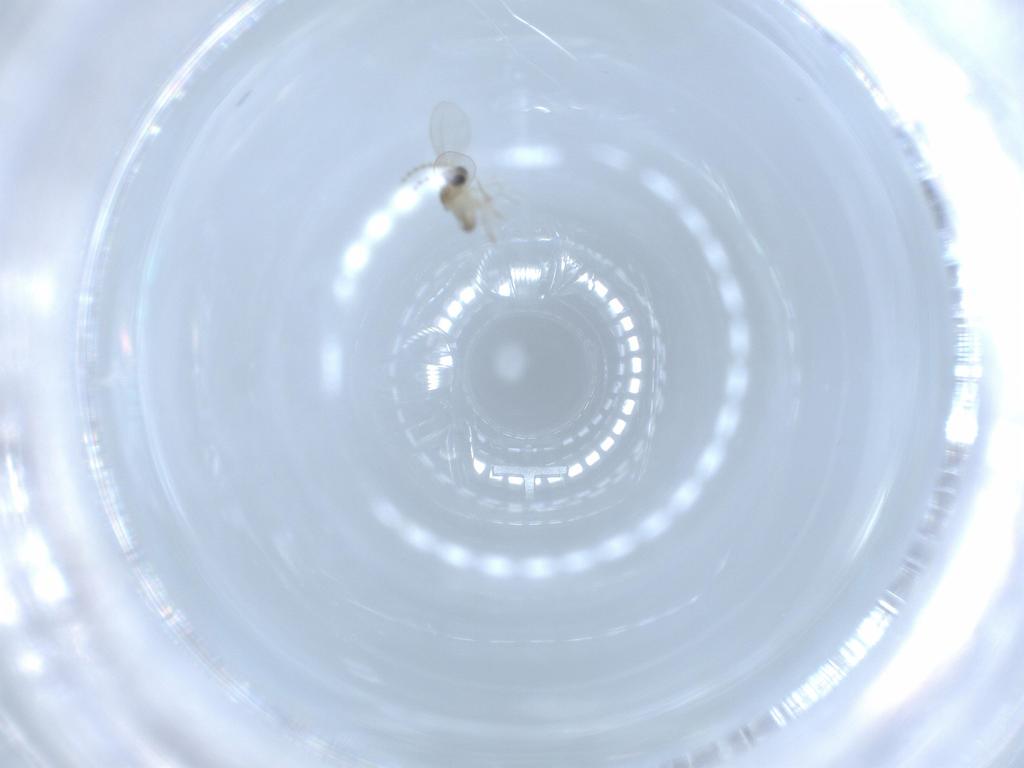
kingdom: Animalia
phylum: Arthropoda
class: Insecta
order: Diptera
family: Cecidomyiidae
